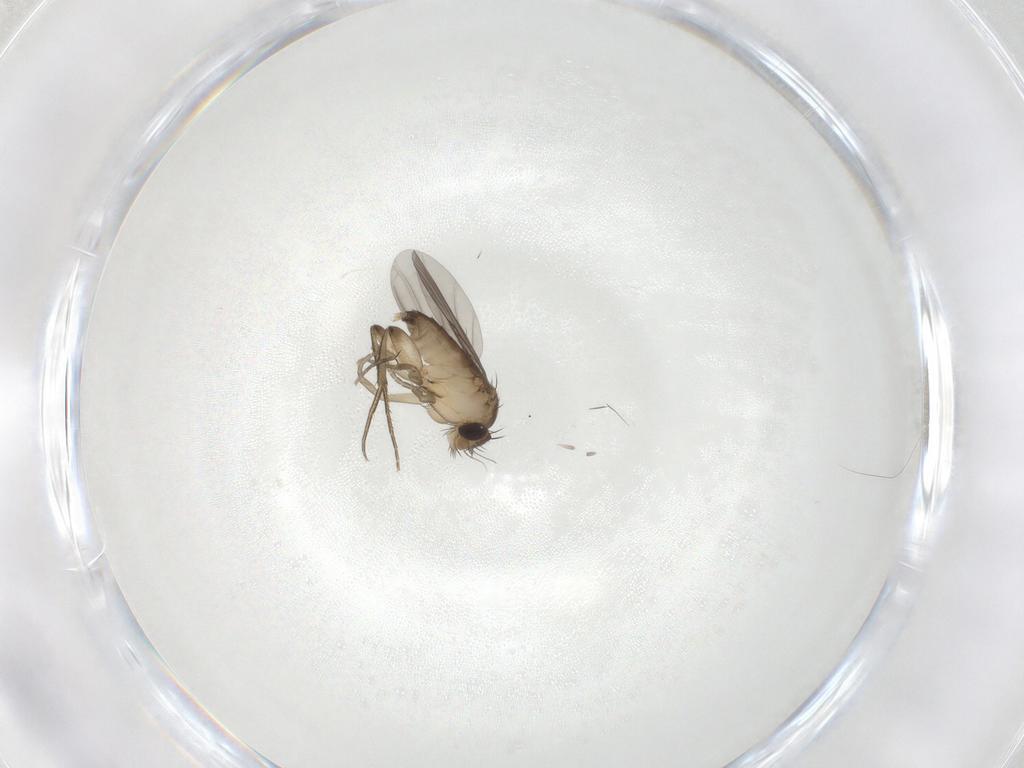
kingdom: Animalia
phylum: Arthropoda
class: Insecta
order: Diptera
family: Phoridae
